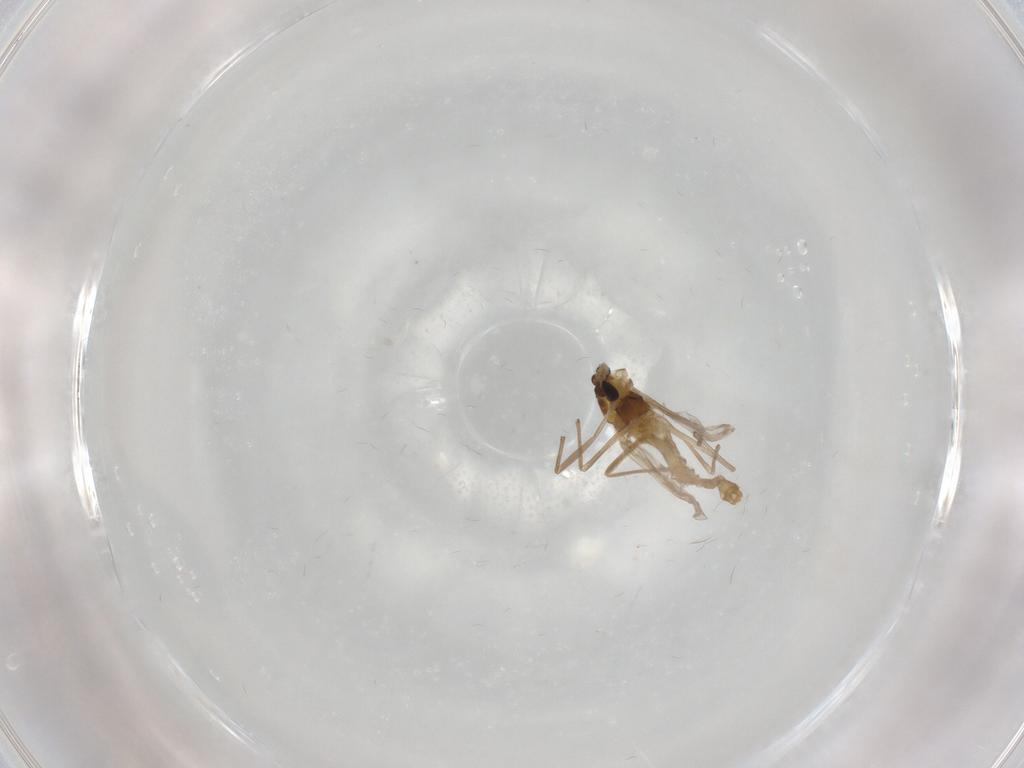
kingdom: Animalia
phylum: Arthropoda
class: Insecta
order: Diptera
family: Chironomidae
